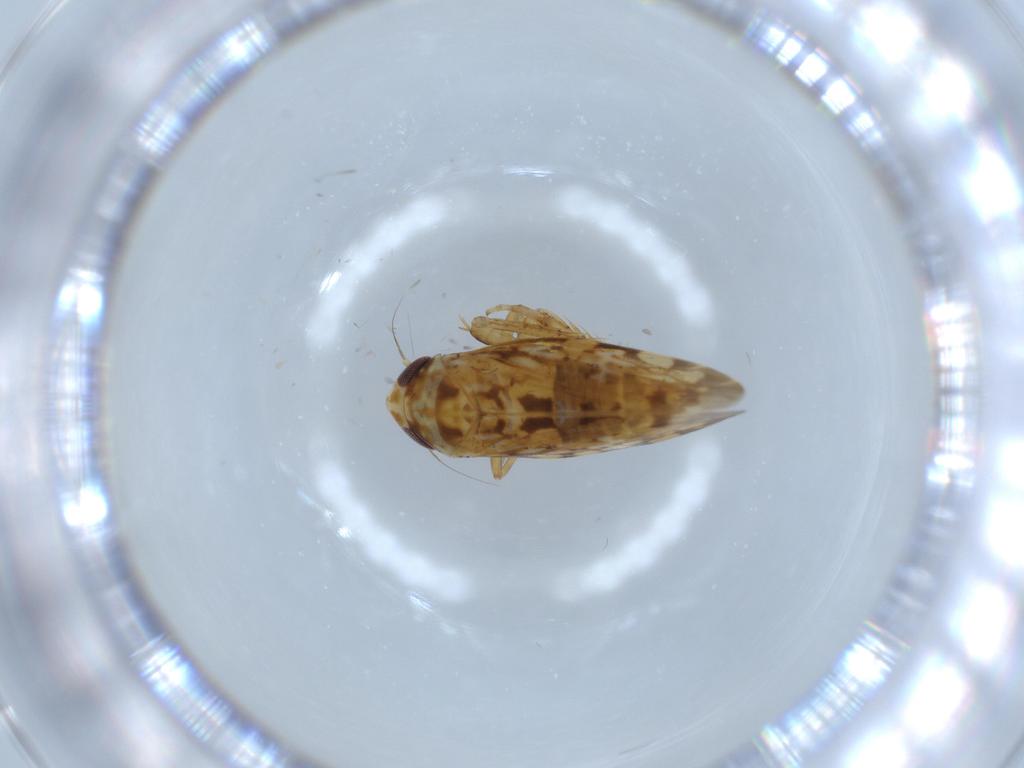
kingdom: Animalia
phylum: Arthropoda
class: Insecta
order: Hemiptera
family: Cicadellidae
